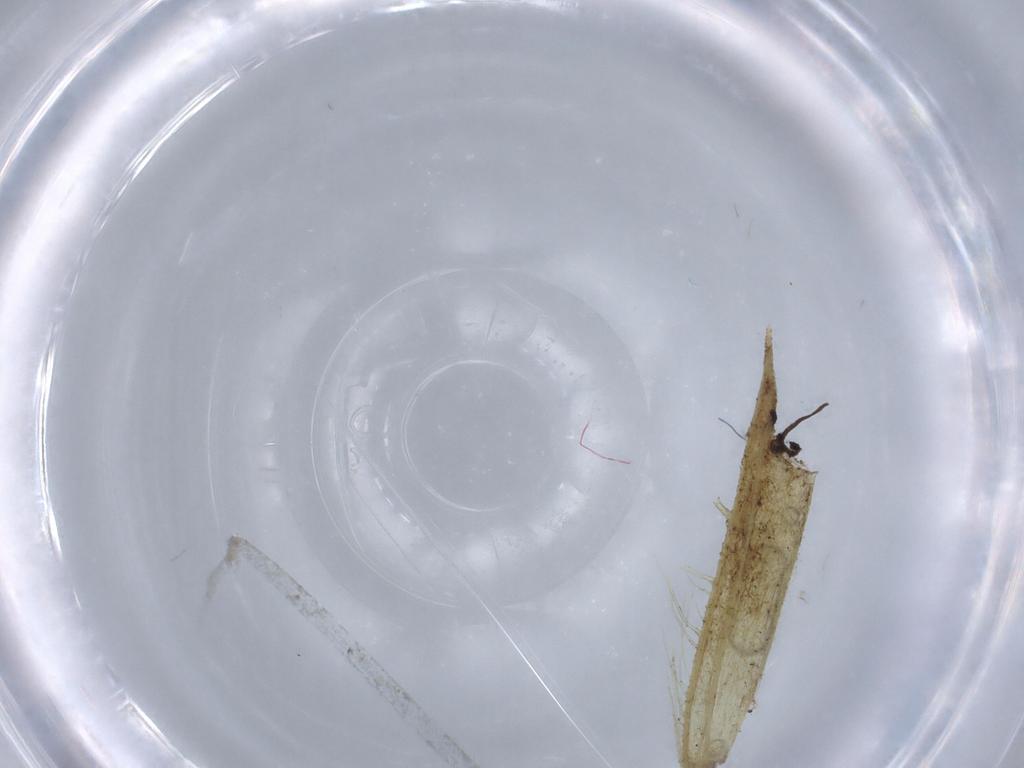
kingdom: Animalia
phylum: Arthropoda
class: Insecta
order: Hymenoptera
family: Formicidae
